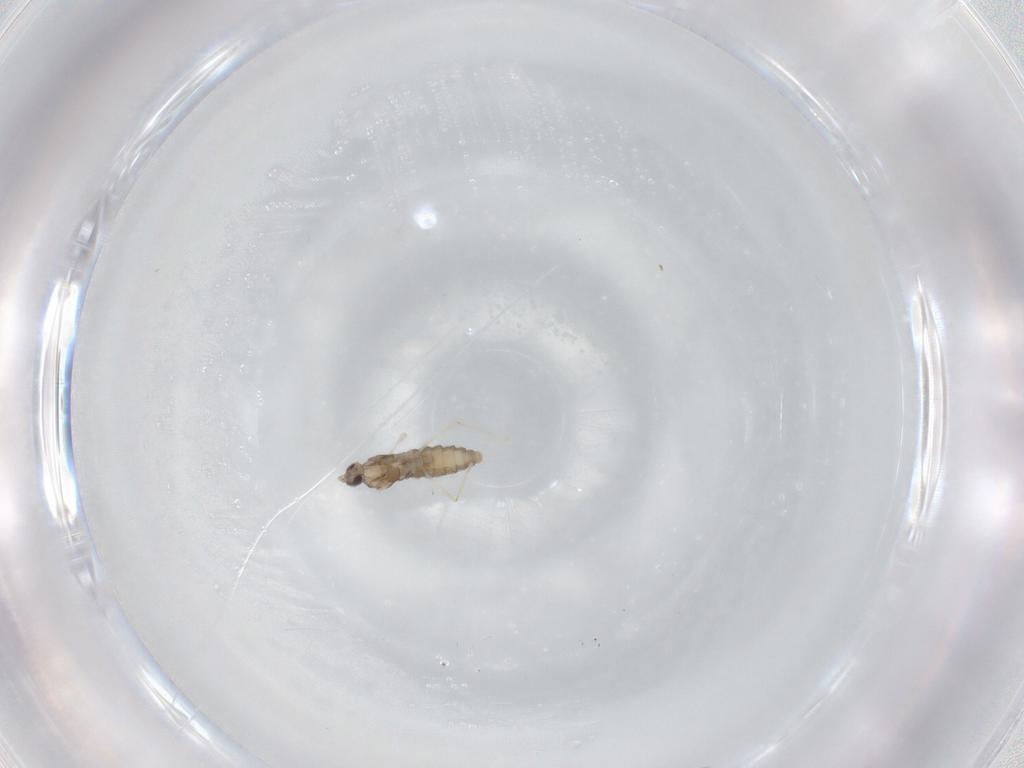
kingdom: Animalia
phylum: Arthropoda
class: Insecta
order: Diptera
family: Cecidomyiidae
